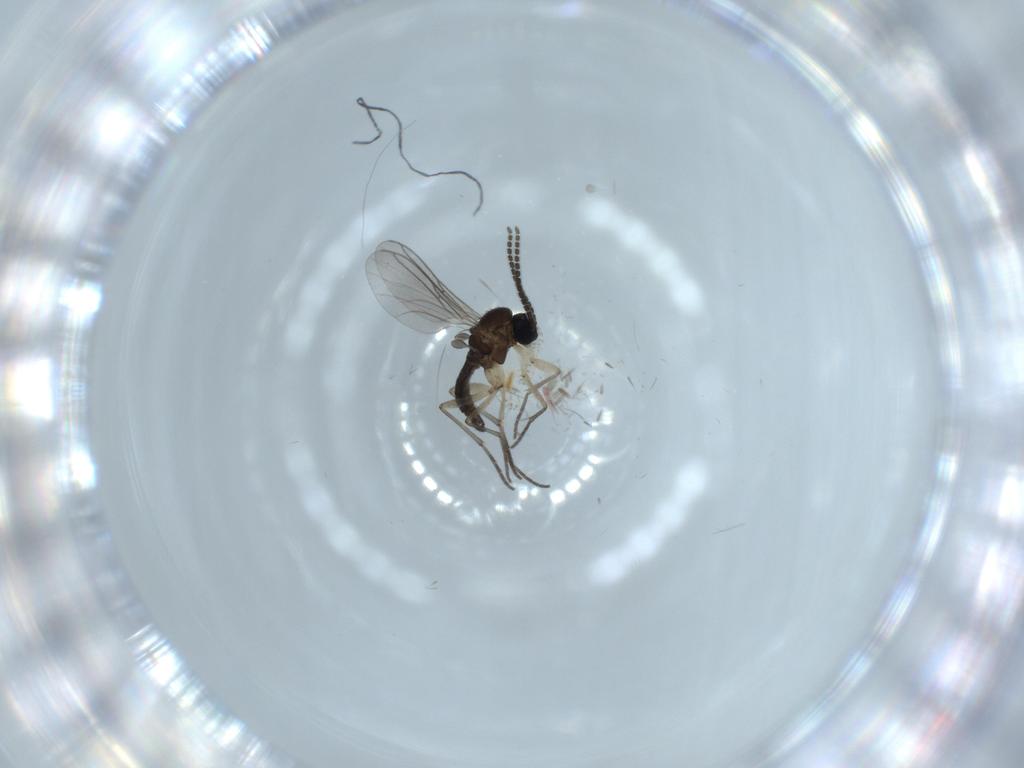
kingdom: Animalia
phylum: Arthropoda
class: Insecta
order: Diptera
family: Sciaridae
